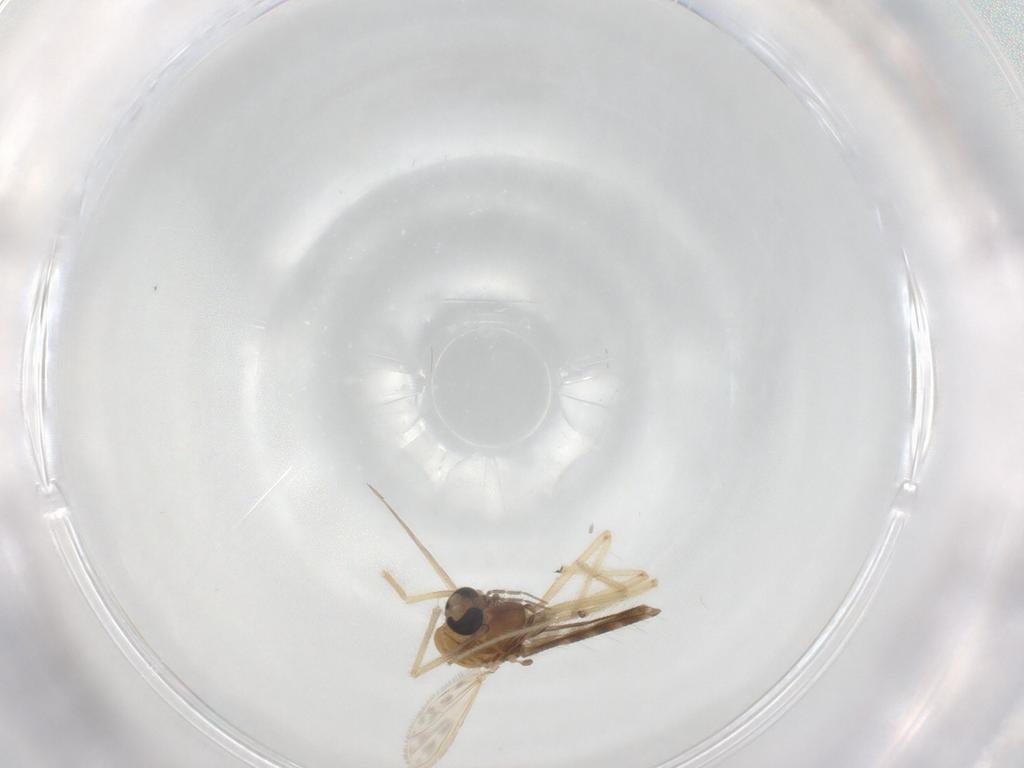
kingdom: Animalia
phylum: Arthropoda
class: Insecta
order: Diptera
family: Chironomidae
